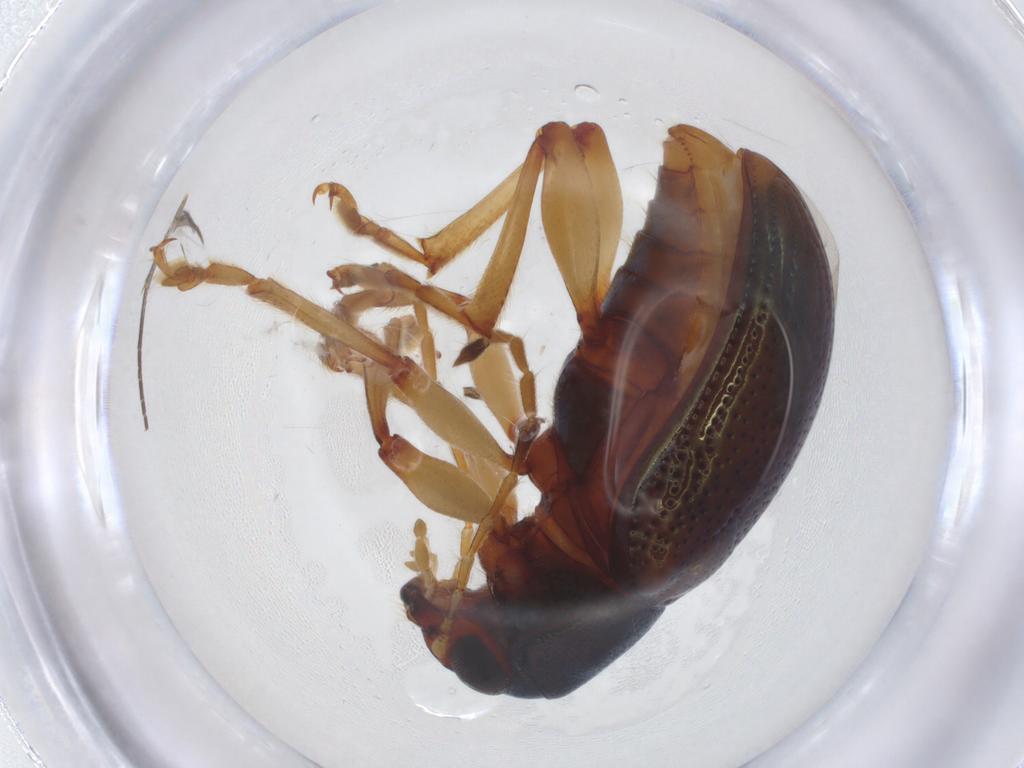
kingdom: Animalia
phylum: Arthropoda
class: Insecta
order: Coleoptera
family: Chrysomelidae
